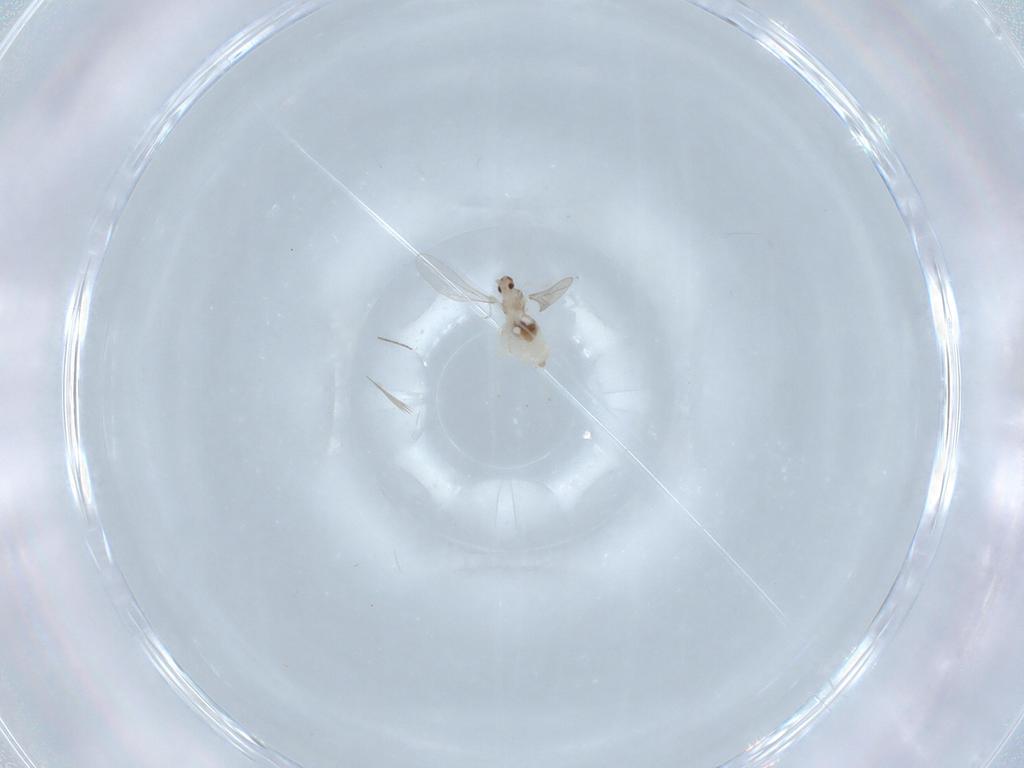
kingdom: Animalia
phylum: Arthropoda
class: Insecta
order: Diptera
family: Cecidomyiidae
